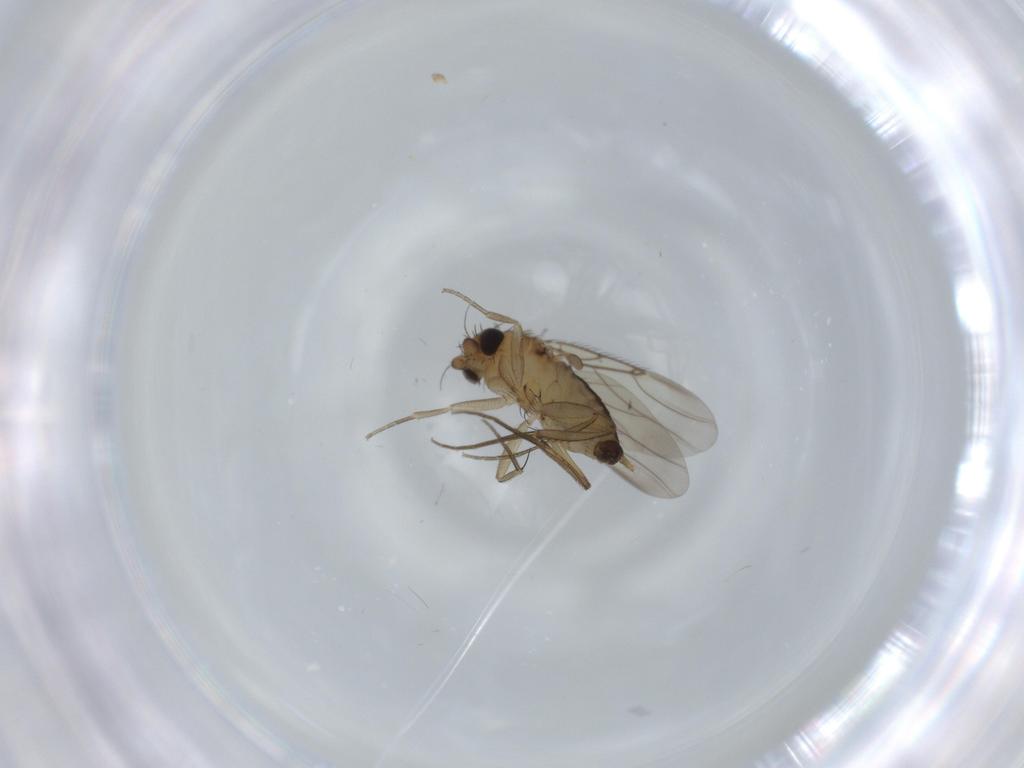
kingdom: Animalia
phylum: Arthropoda
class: Insecta
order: Diptera
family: Phoridae
